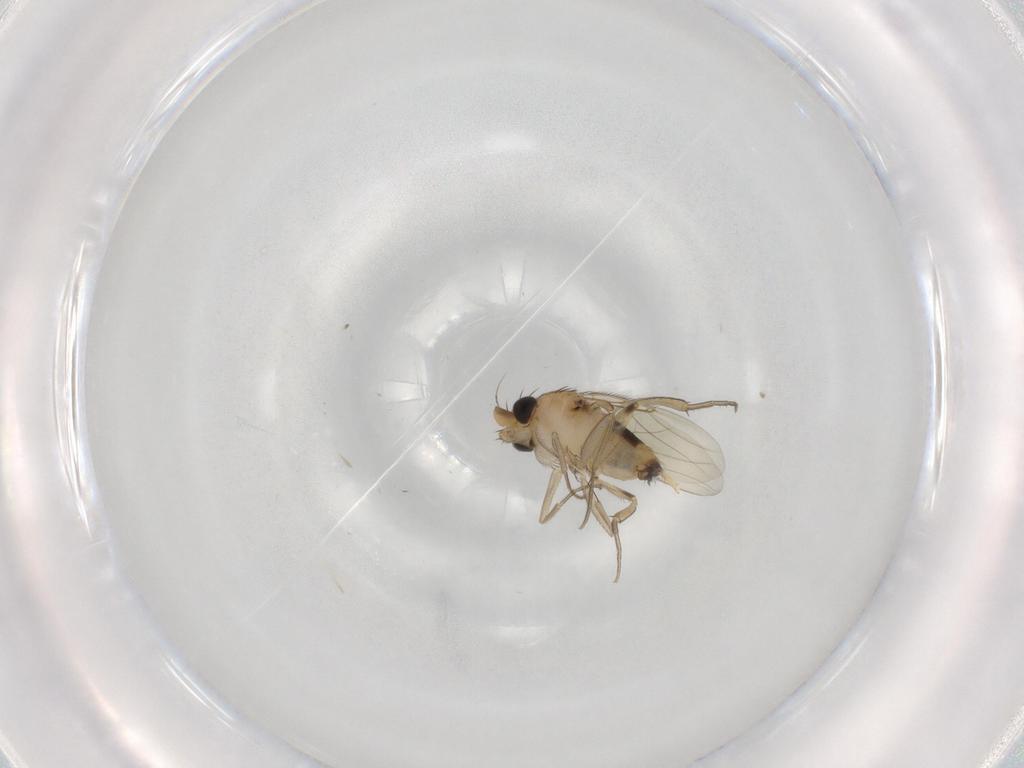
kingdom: Animalia
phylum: Arthropoda
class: Insecta
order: Diptera
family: Phoridae
